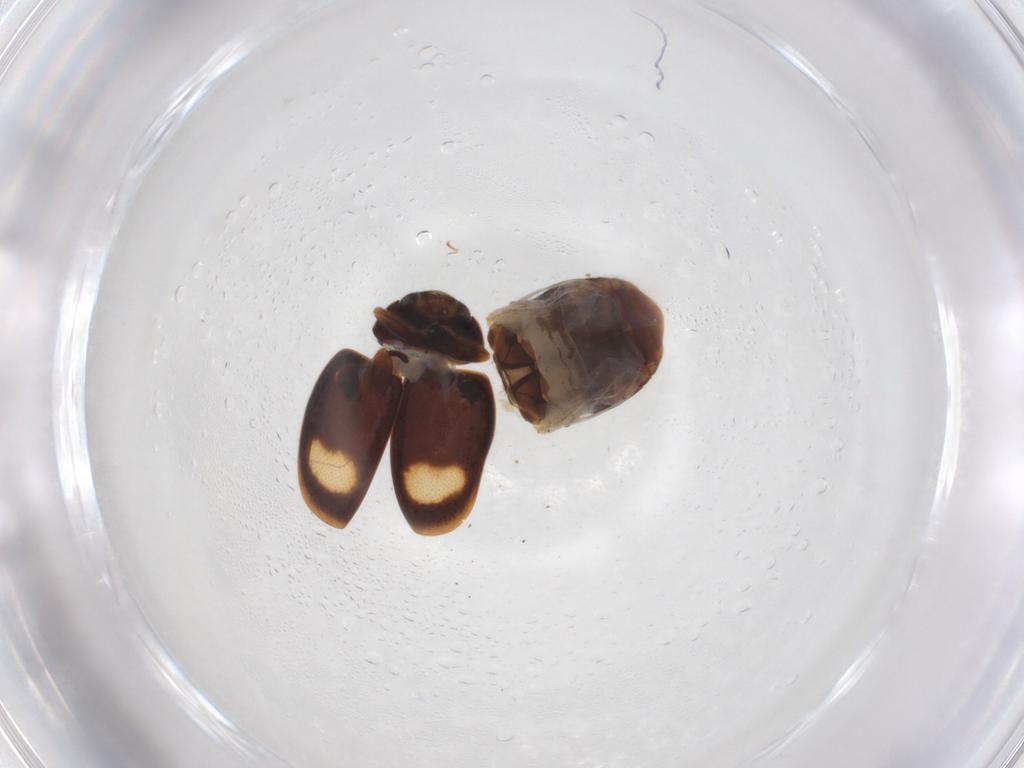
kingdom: Animalia
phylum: Arthropoda
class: Insecta
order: Coleoptera
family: Coccinellidae
